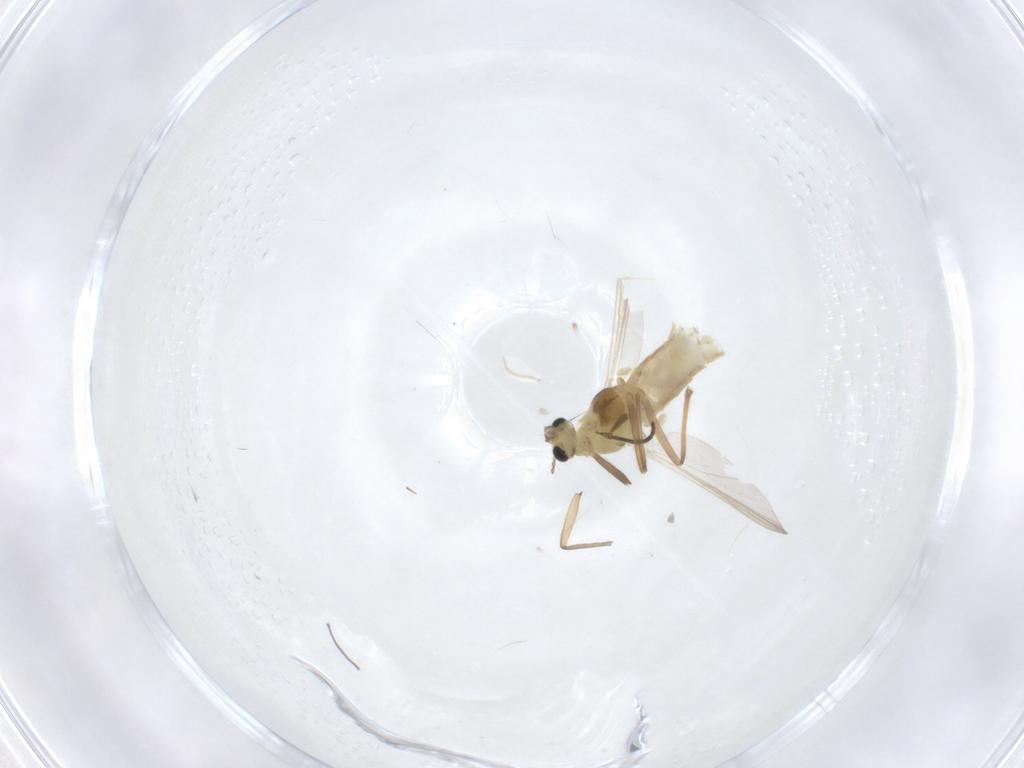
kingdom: Animalia
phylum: Arthropoda
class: Insecta
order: Diptera
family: Chironomidae
